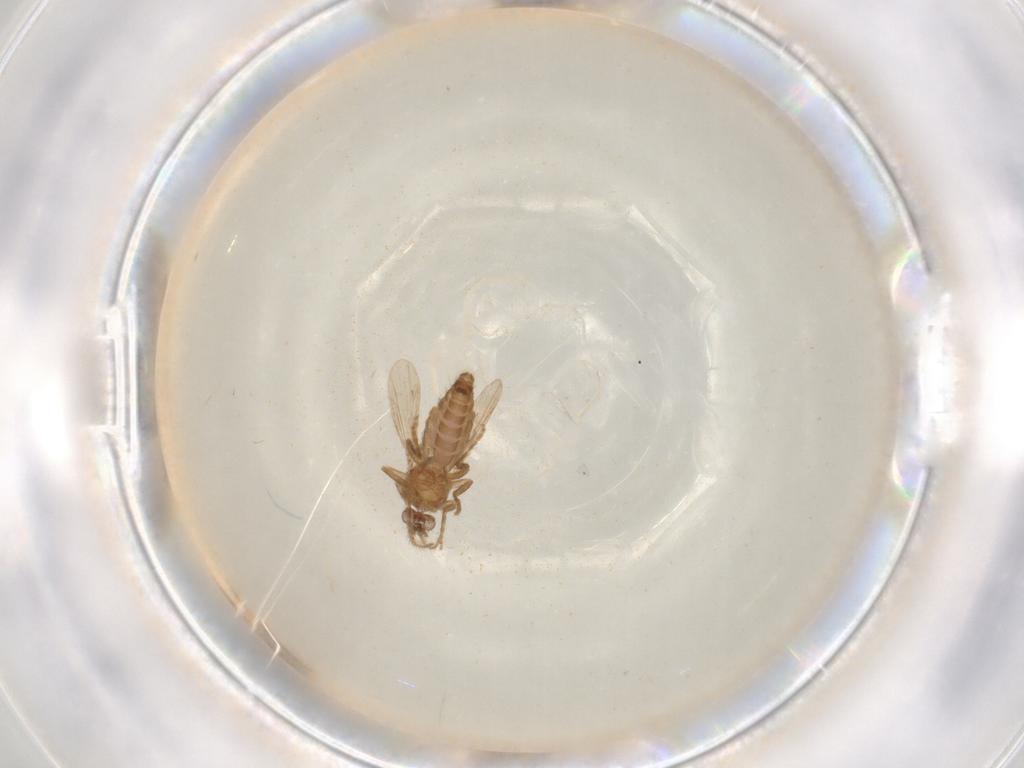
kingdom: Animalia
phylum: Arthropoda
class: Insecta
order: Diptera
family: Ceratopogonidae
